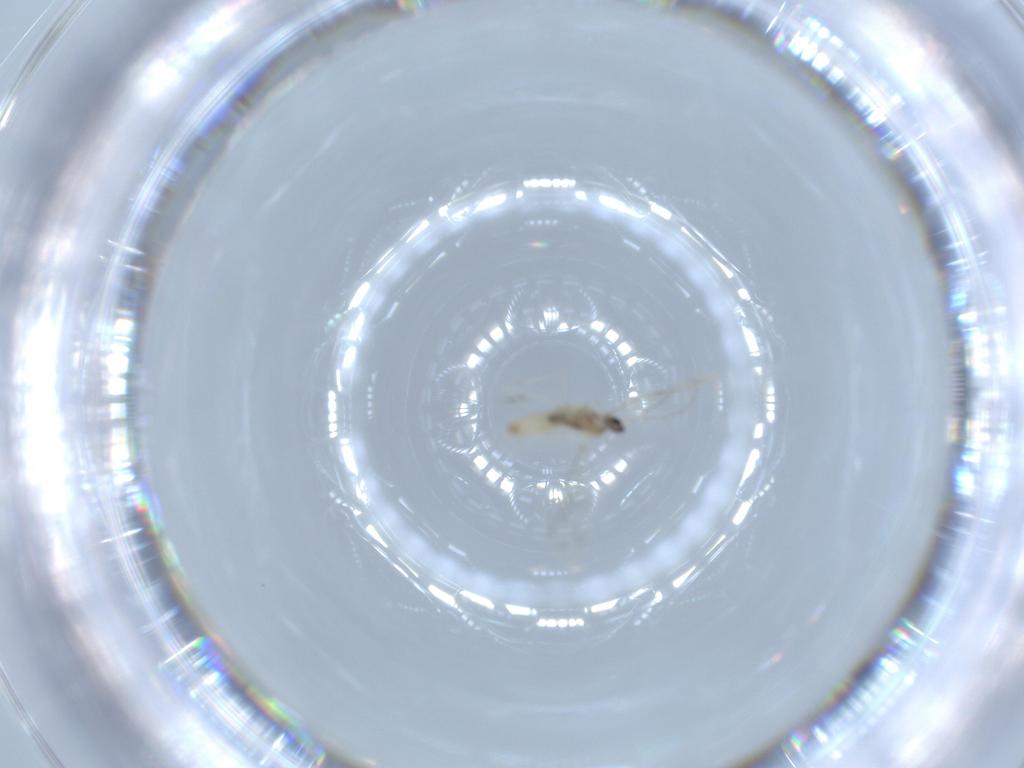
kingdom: Animalia
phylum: Arthropoda
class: Insecta
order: Diptera
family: Cecidomyiidae
